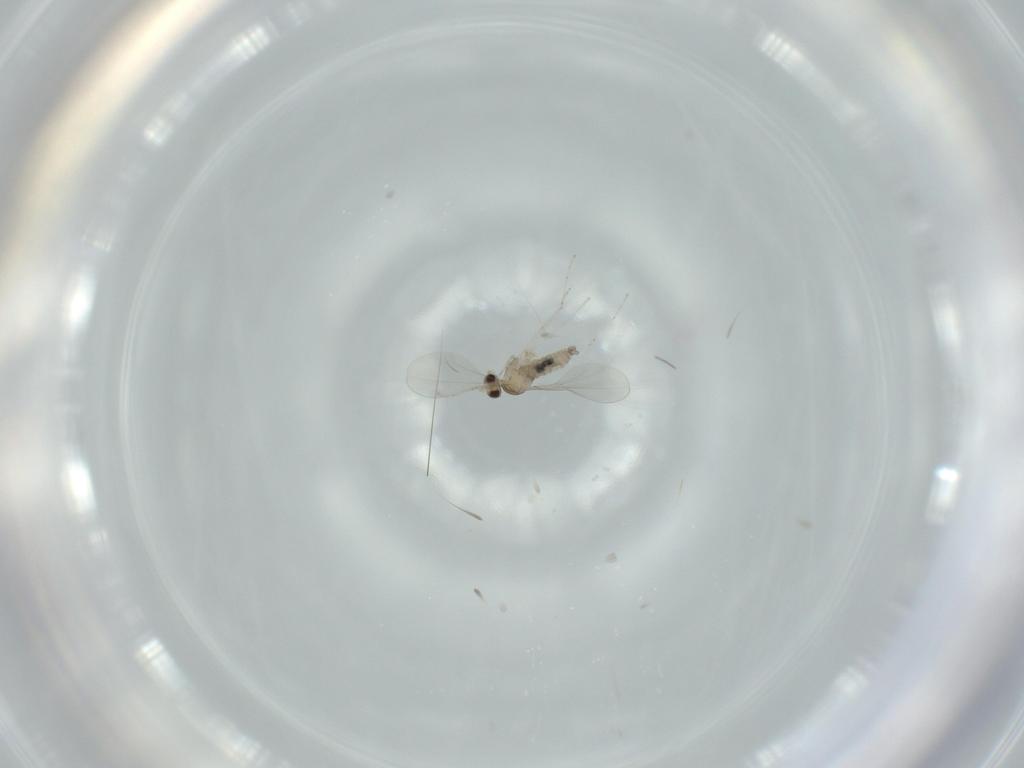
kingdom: Animalia
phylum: Arthropoda
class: Insecta
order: Diptera
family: Cecidomyiidae
